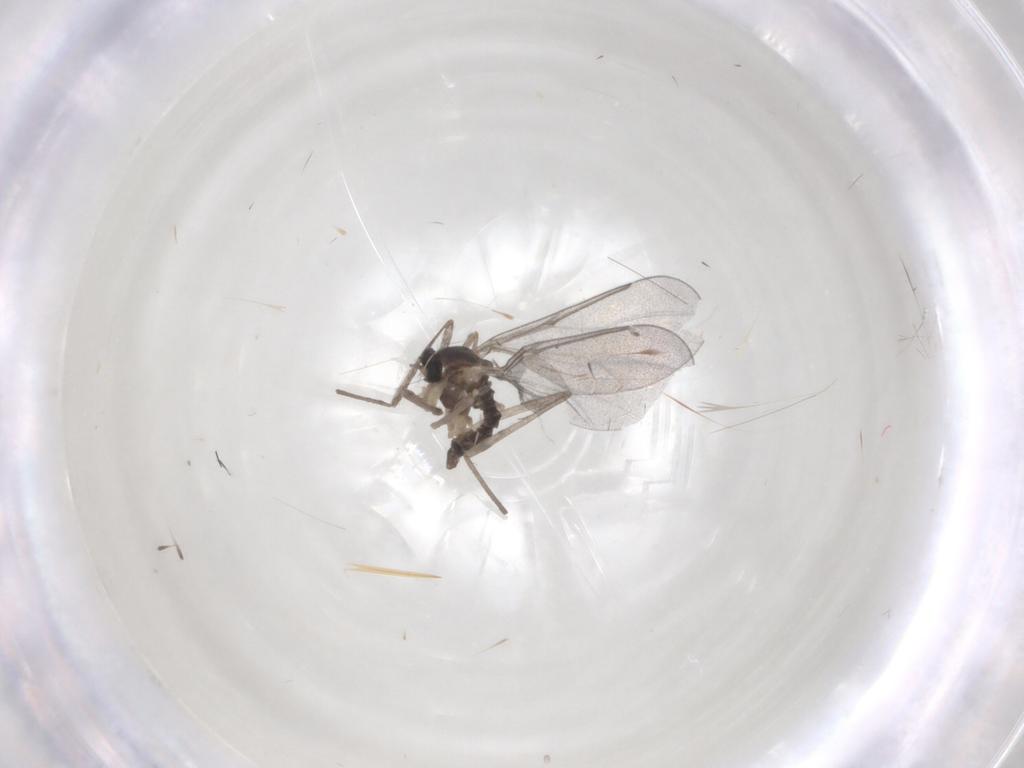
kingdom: Animalia
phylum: Arthropoda
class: Insecta
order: Diptera
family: Cecidomyiidae
